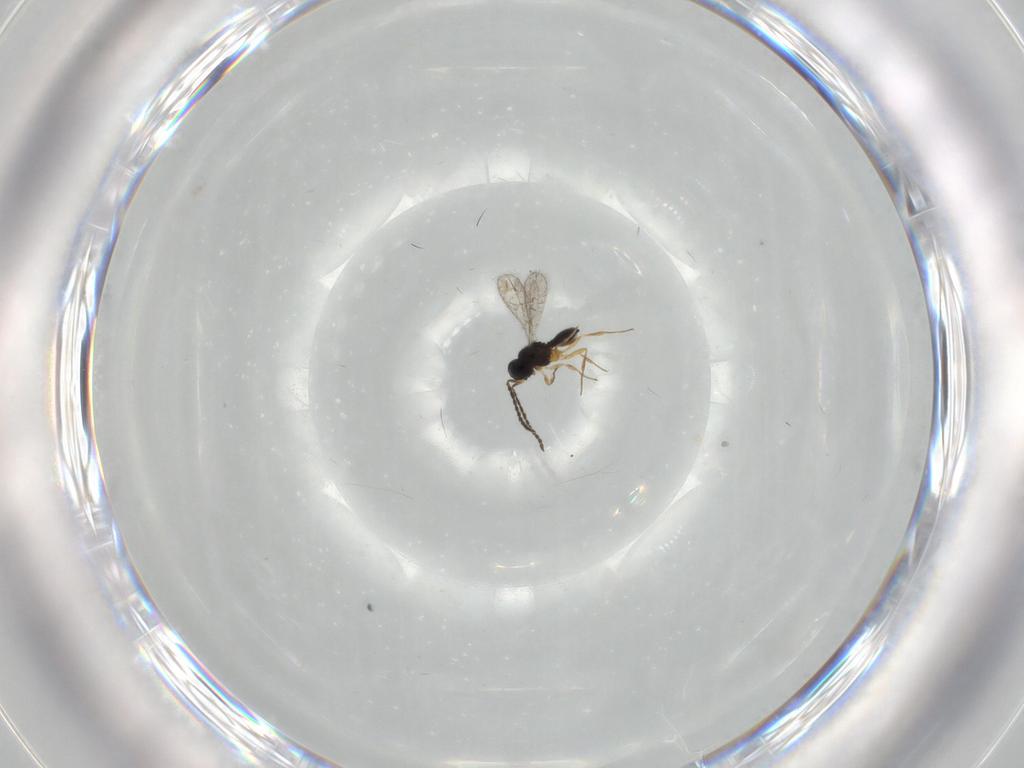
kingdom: Animalia
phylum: Arthropoda
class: Insecta
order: Hymenoptera
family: Scelionidae
